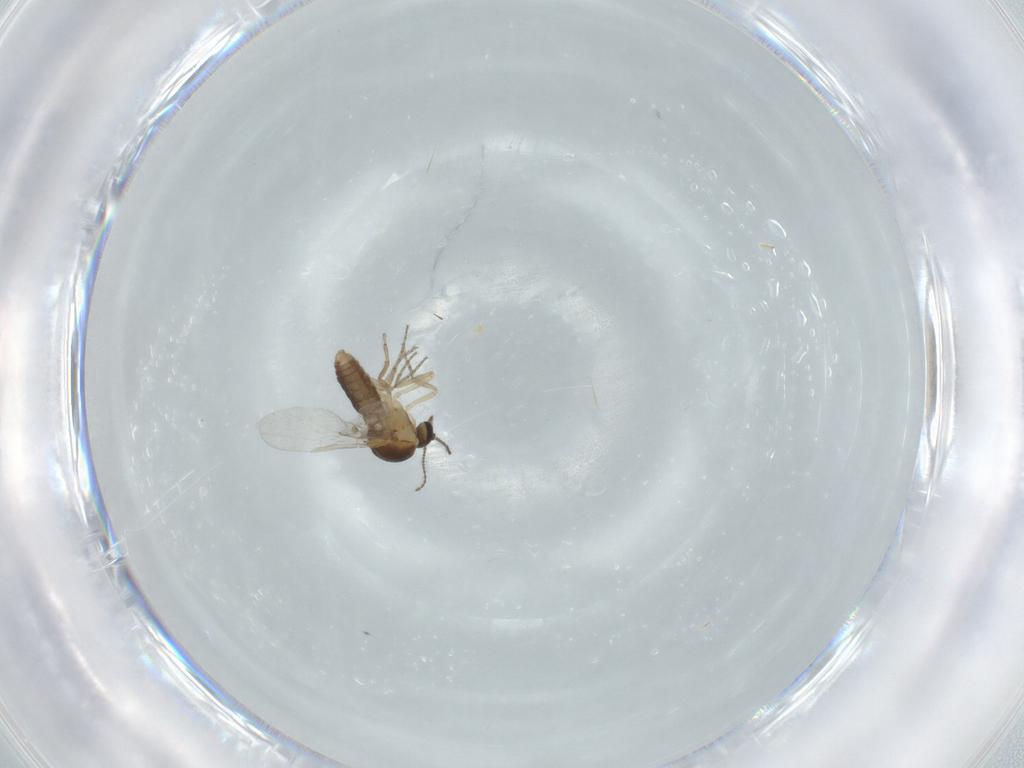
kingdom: Animalia
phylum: Arthropoda
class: Insecta
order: Diptera
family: Ceratopogonidae
